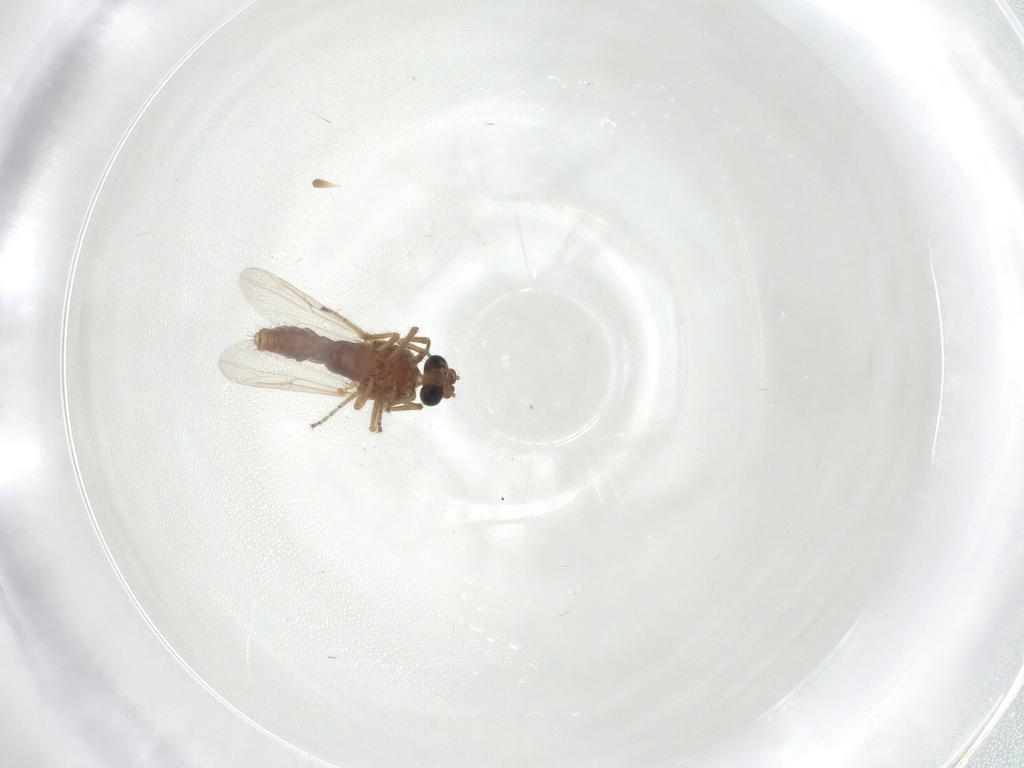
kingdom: Animalia
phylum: Arthropoda
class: Insecta
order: Diptera
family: Ceratopogonidae
